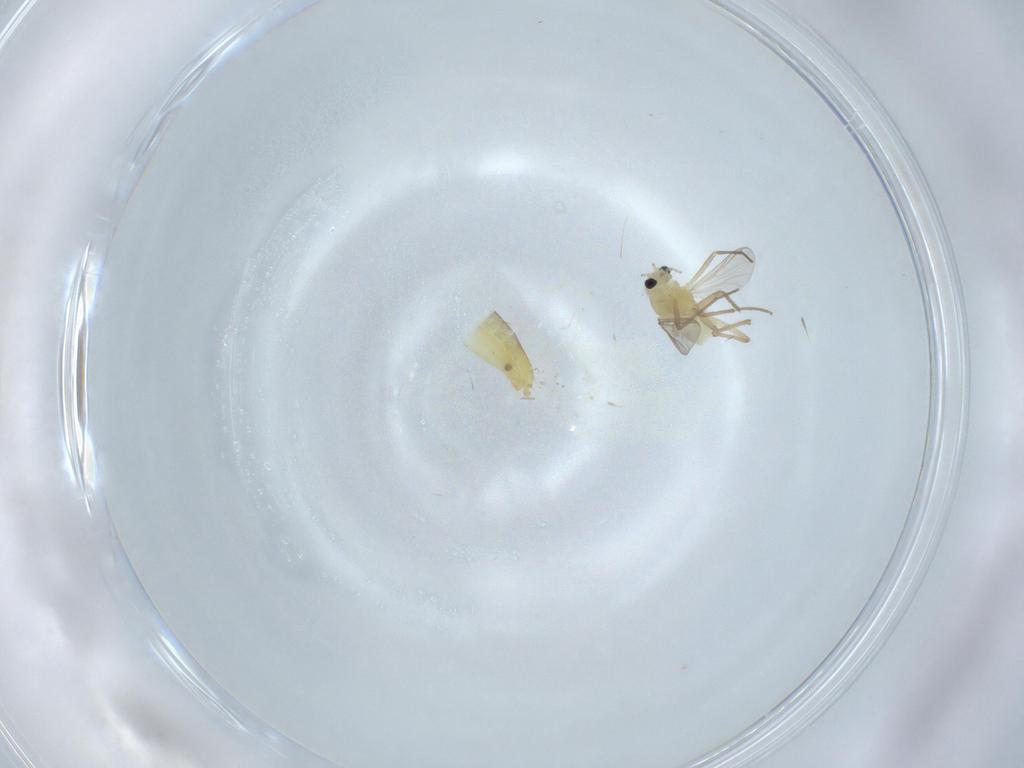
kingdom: Animalia
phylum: Arthropoda
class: Insecta
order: Diptera
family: Chironomidae
